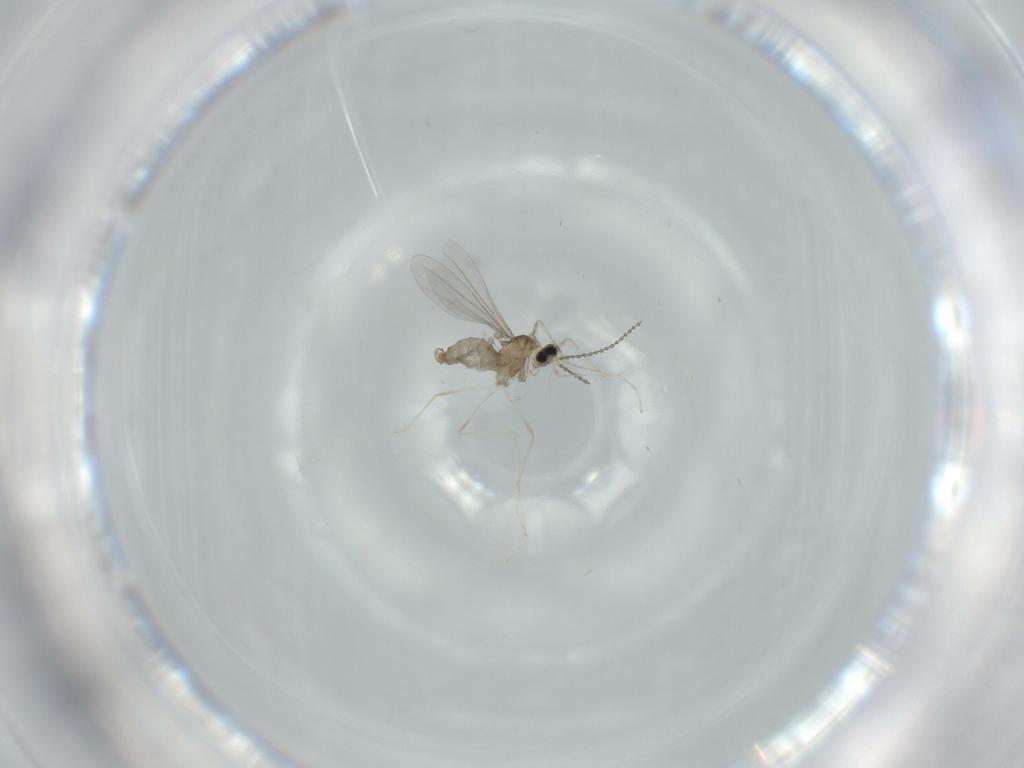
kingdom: Animalia
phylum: Arthropoda
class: Insecta
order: Diptera
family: Cecidomyiidae
